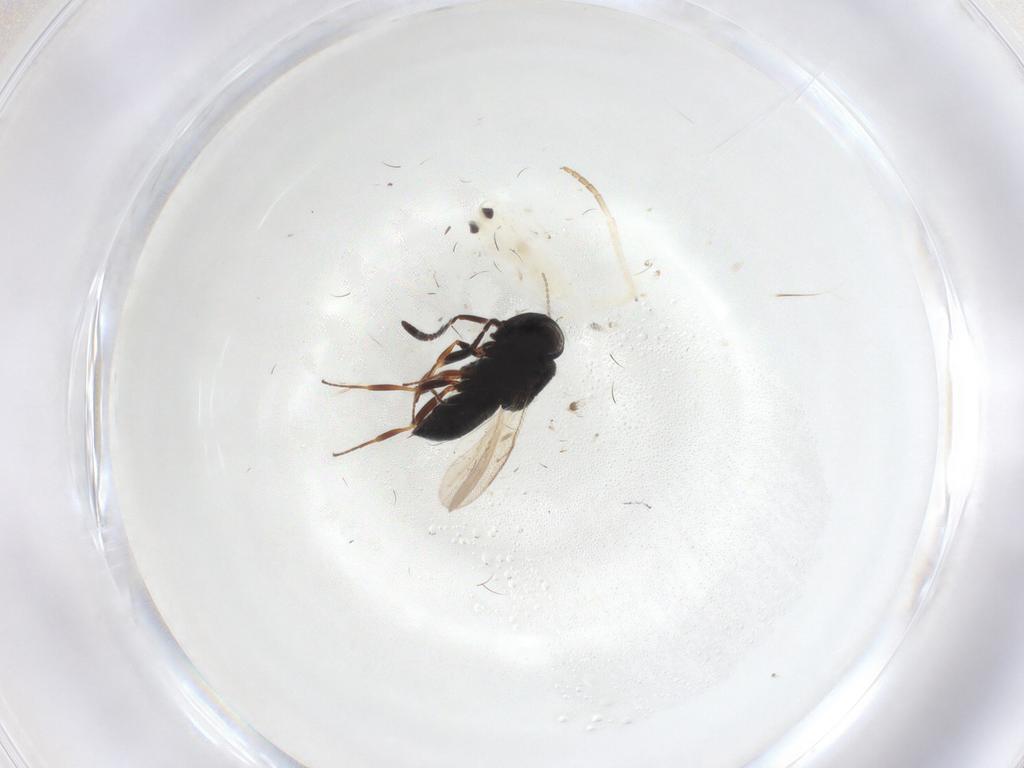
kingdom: Animalia
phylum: Arthropoda
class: Insecta
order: Hymenoptera
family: Scelionidae
